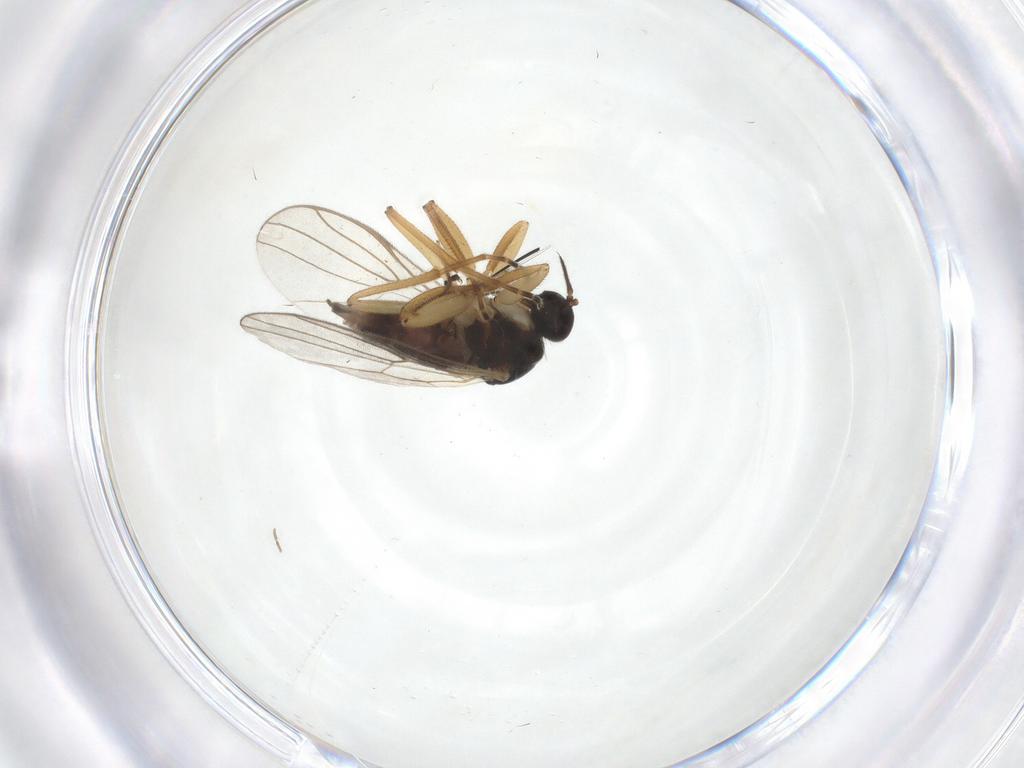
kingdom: Animalia
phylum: Arthropoda
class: Insecta
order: Diptera
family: Hybotidae
